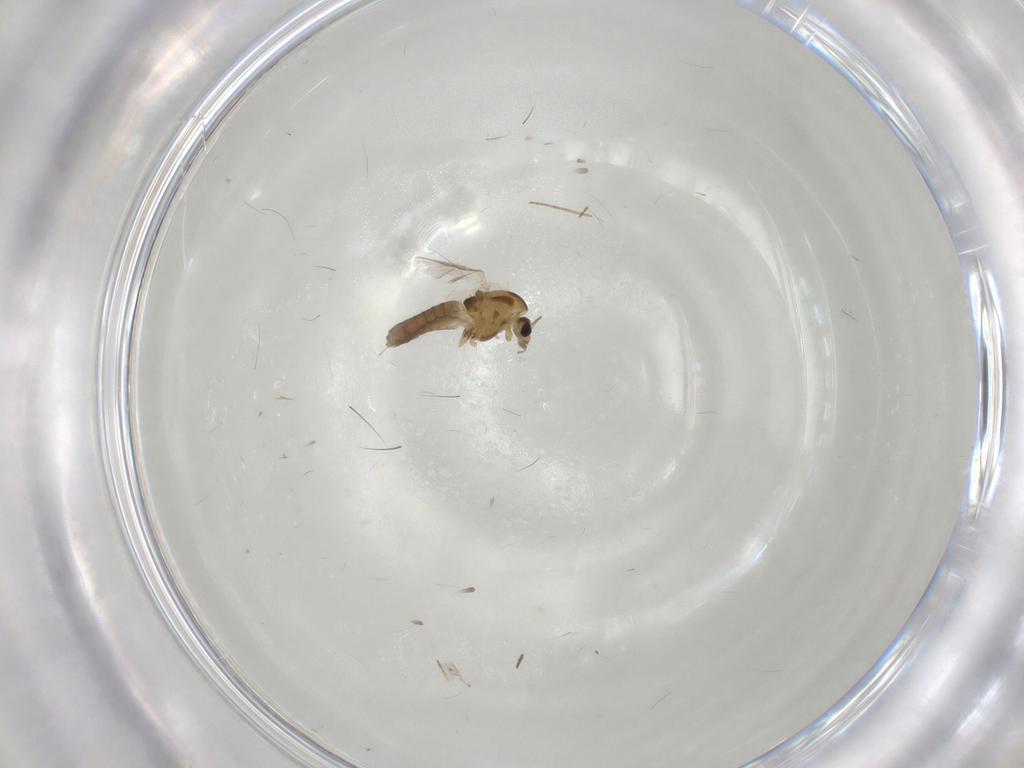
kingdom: Animalia
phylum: Arthropoda
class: Insecta
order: Diptera
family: Chironomidae
